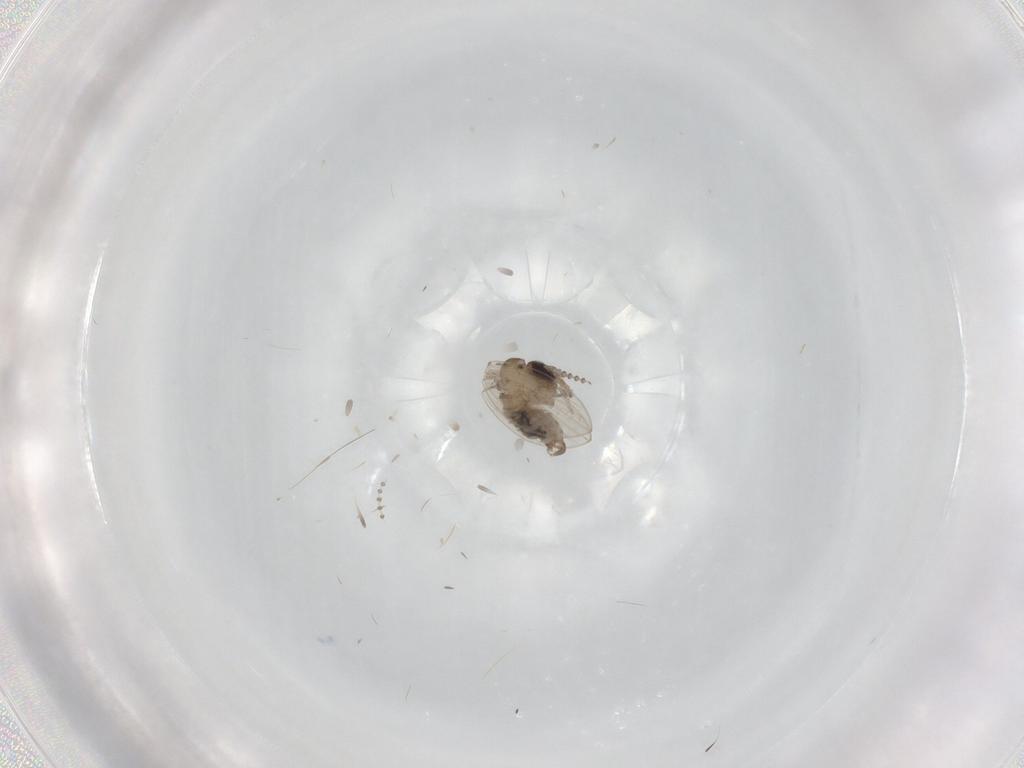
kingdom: Animalia
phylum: Arthropoda
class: Insecta
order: Diptera
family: Psychodidae
